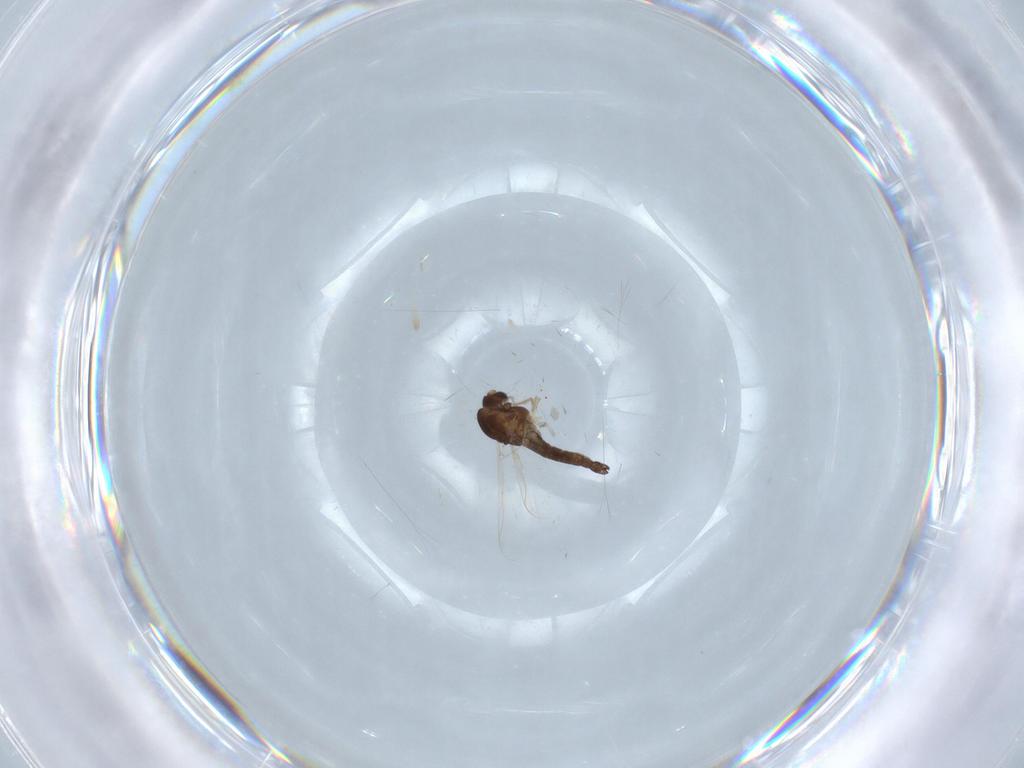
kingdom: Animalia
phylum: Arthropoda
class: Insecta
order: Diptera
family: Chironomidae
